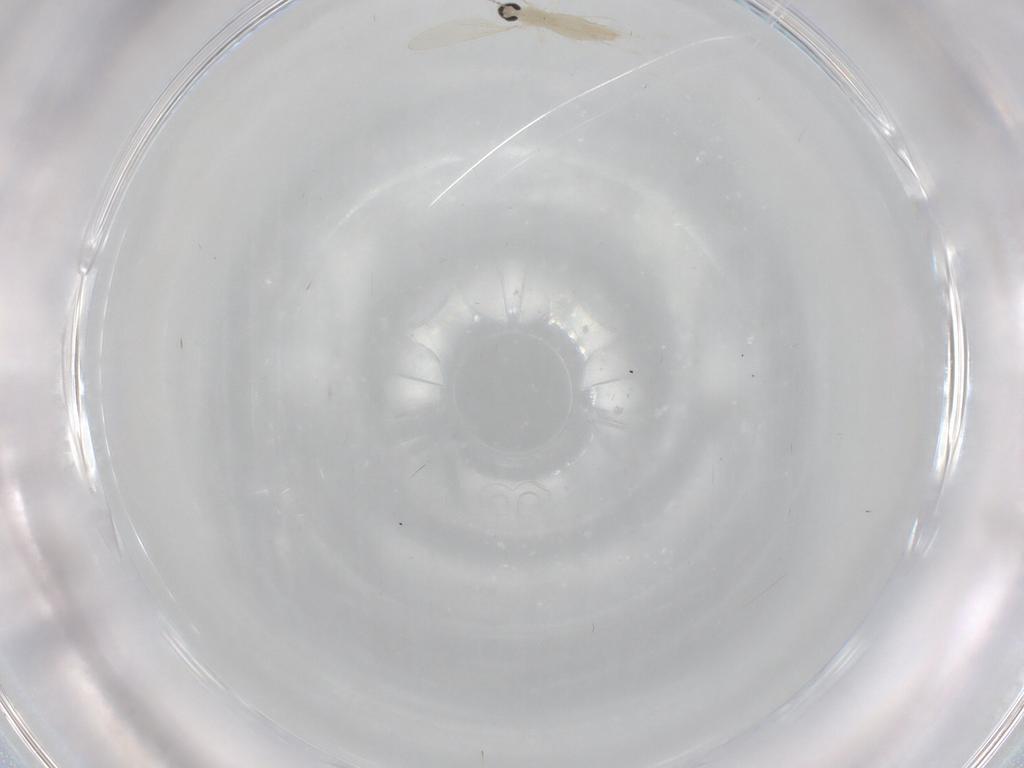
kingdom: Animalia
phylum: Arthropoda
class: Insecta
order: Diptera
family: Cecidomyiidae
